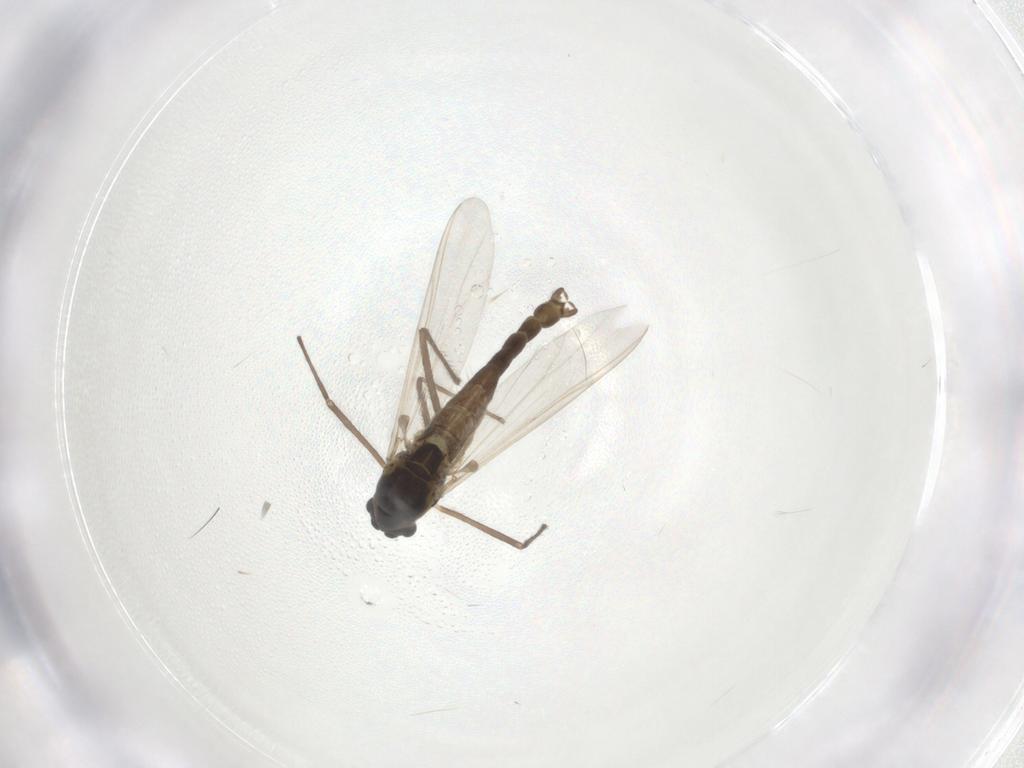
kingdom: Animalia
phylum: Arthropoda
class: Insecta
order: Diptera
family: Chironomidae
